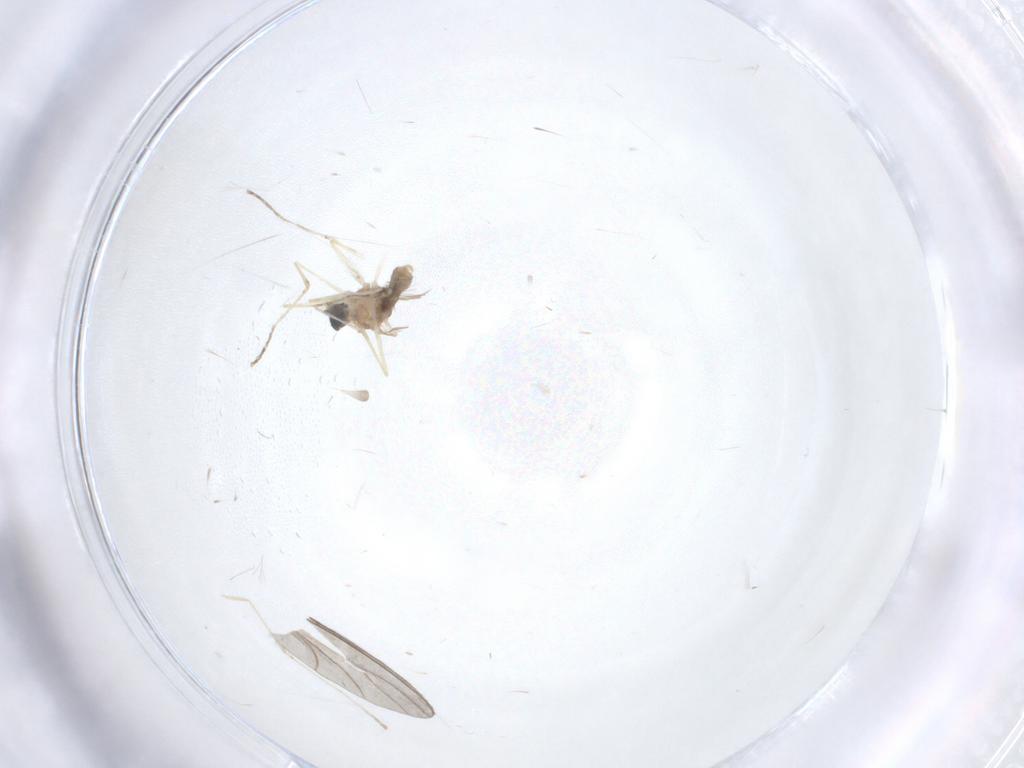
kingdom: Animalia
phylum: Arthropoda
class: Insecta
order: Diptera
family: Cecidomyiidae
